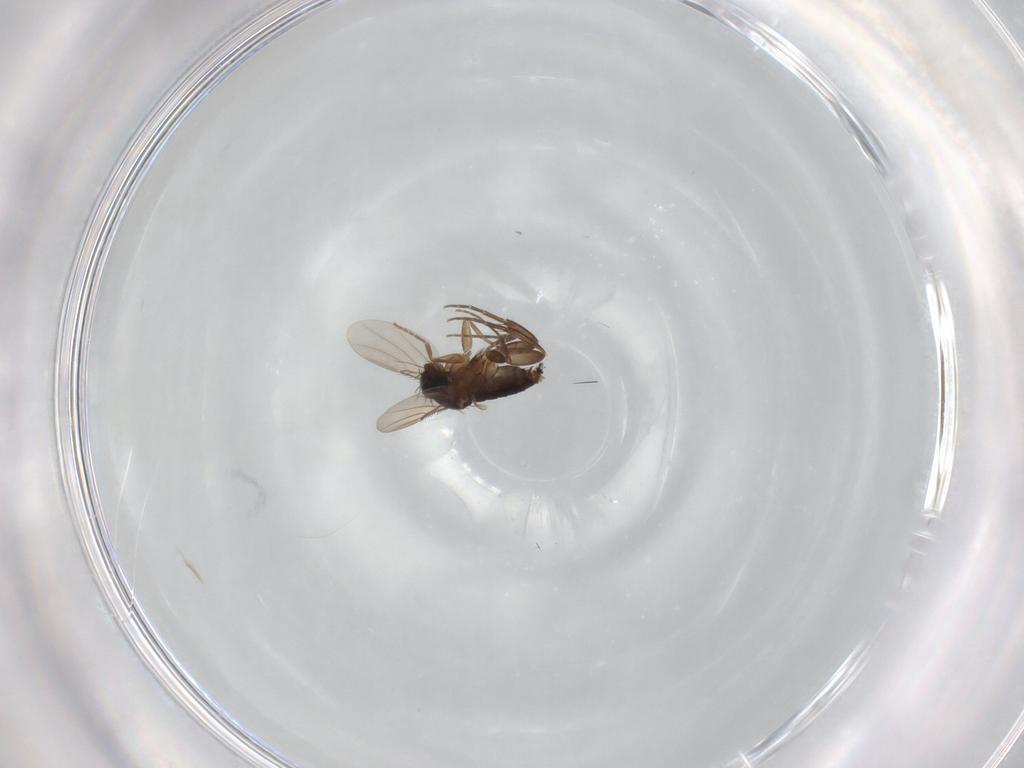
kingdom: Animalia
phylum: Arthropoda
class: Insecta
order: Diptera
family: Phoridae
